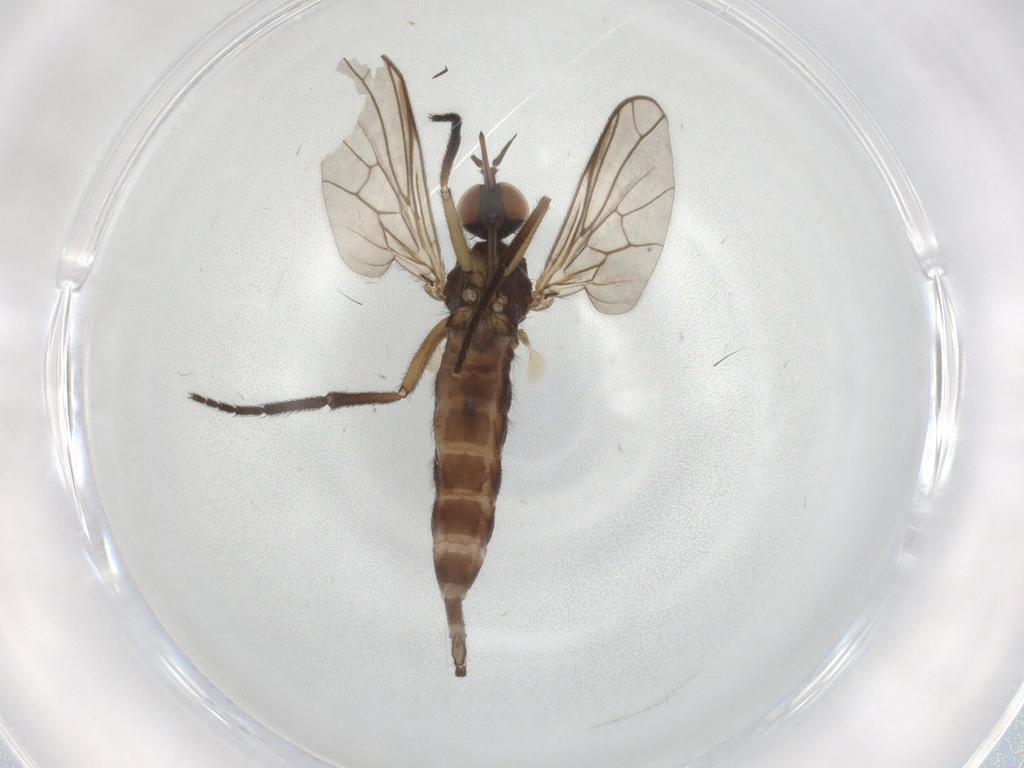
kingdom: Animalia
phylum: Arthropoda
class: Insecta
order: Diptera
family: Empididae
